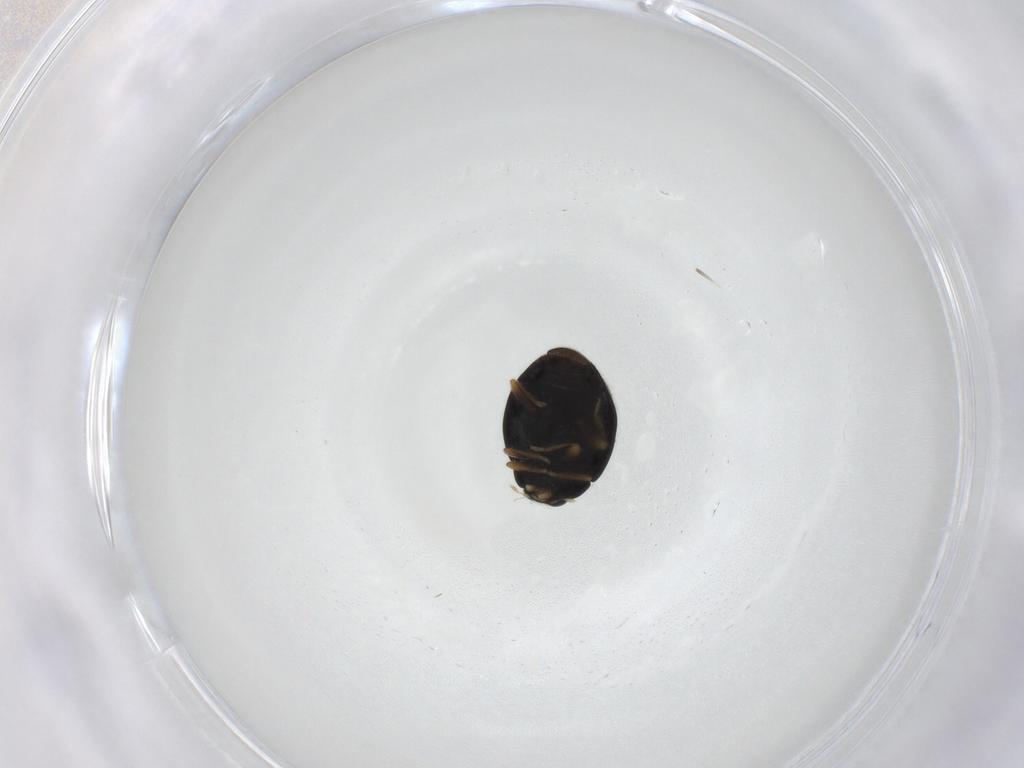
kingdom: Animalia
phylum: Arthropoda
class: Insecta
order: Coleoptera
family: Coccinellidae
